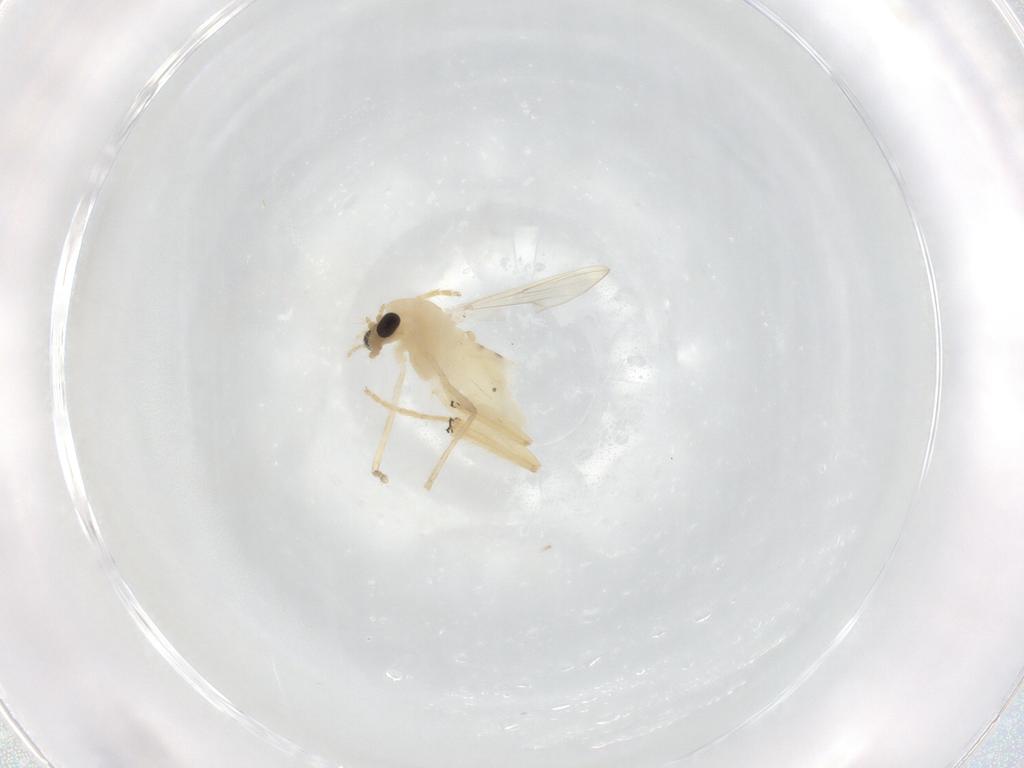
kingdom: Animalia
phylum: Arthropoda
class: Insecta
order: Diptera
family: Chironomidae
